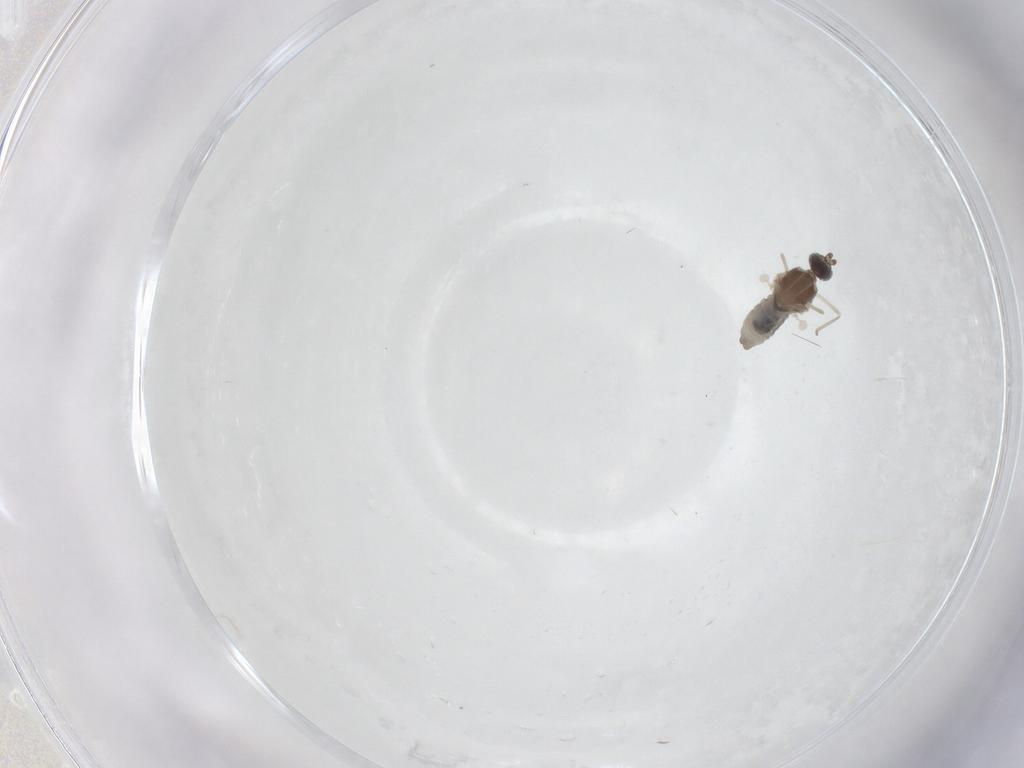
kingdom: Animalia
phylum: Arthropoda
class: Insecta
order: Diptera
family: Cecidomyiidae
